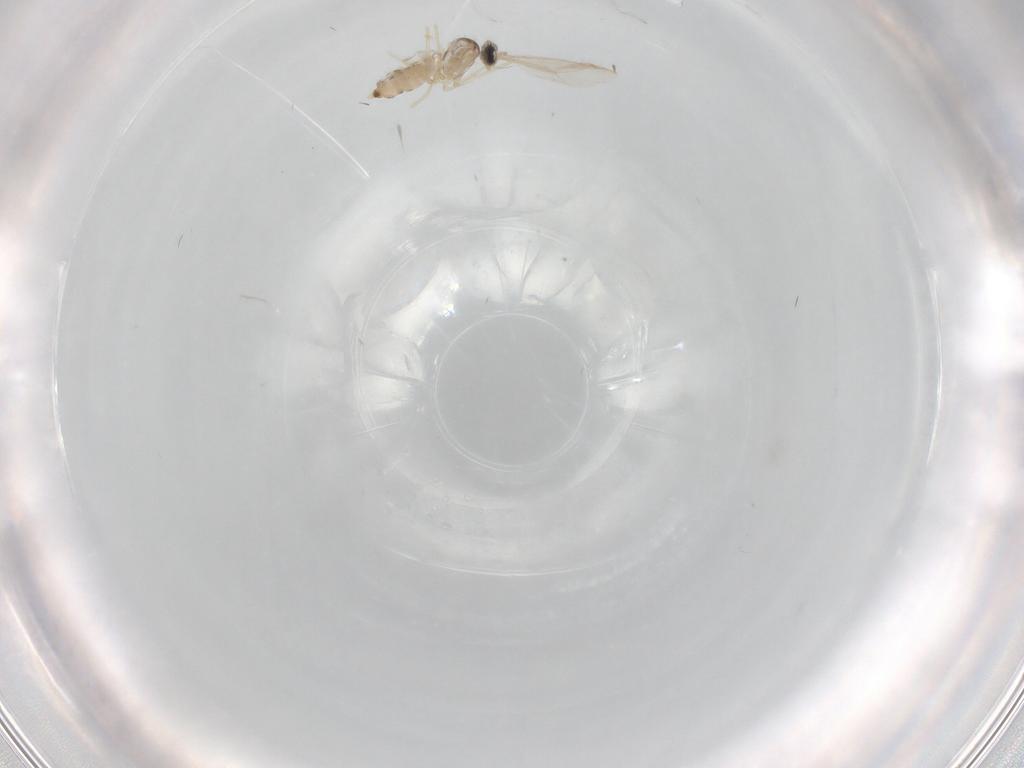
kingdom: Animalia
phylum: Arthropoda
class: Insecta
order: Diptera
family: Cecidomyiidae
